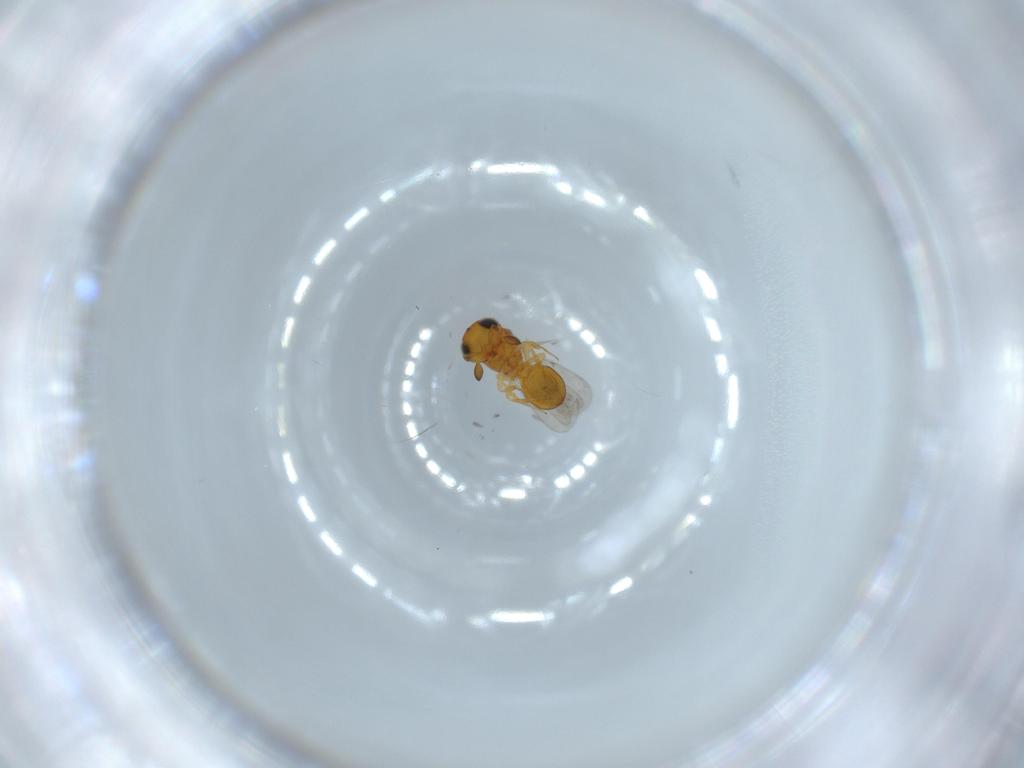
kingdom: Animalia
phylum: Arthropoda
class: Insecta
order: Hymenoptera
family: Scelionidae
